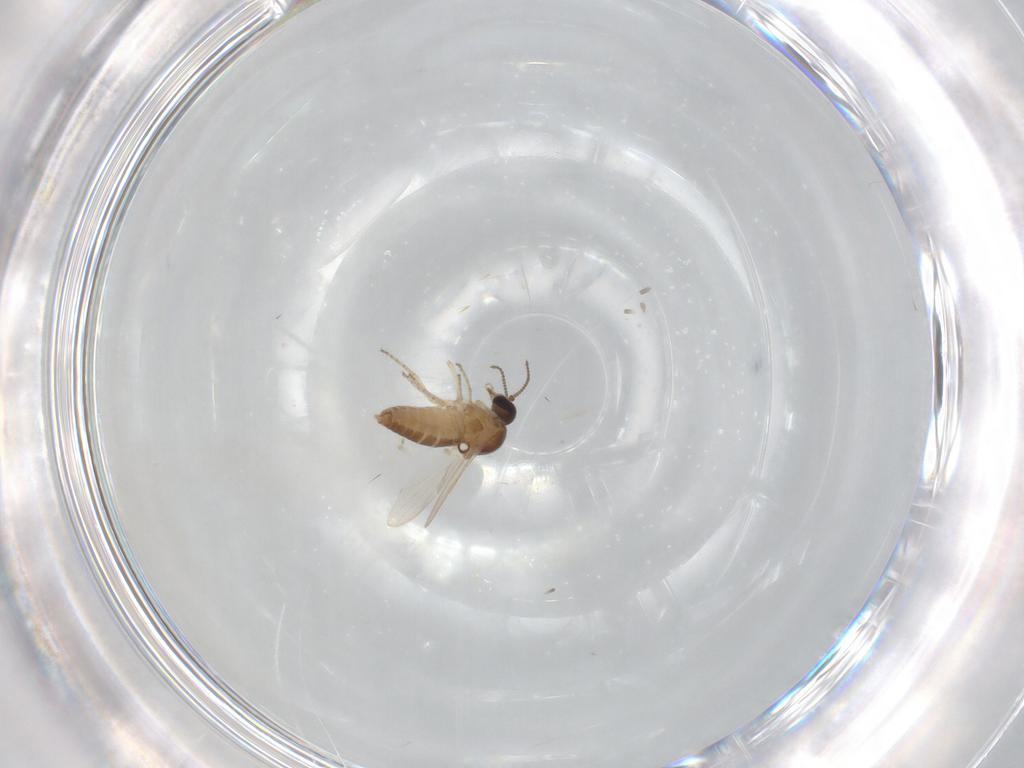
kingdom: Animalia
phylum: Arthropoda
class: Insecta
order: Diptera
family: Ceratopogonidae
